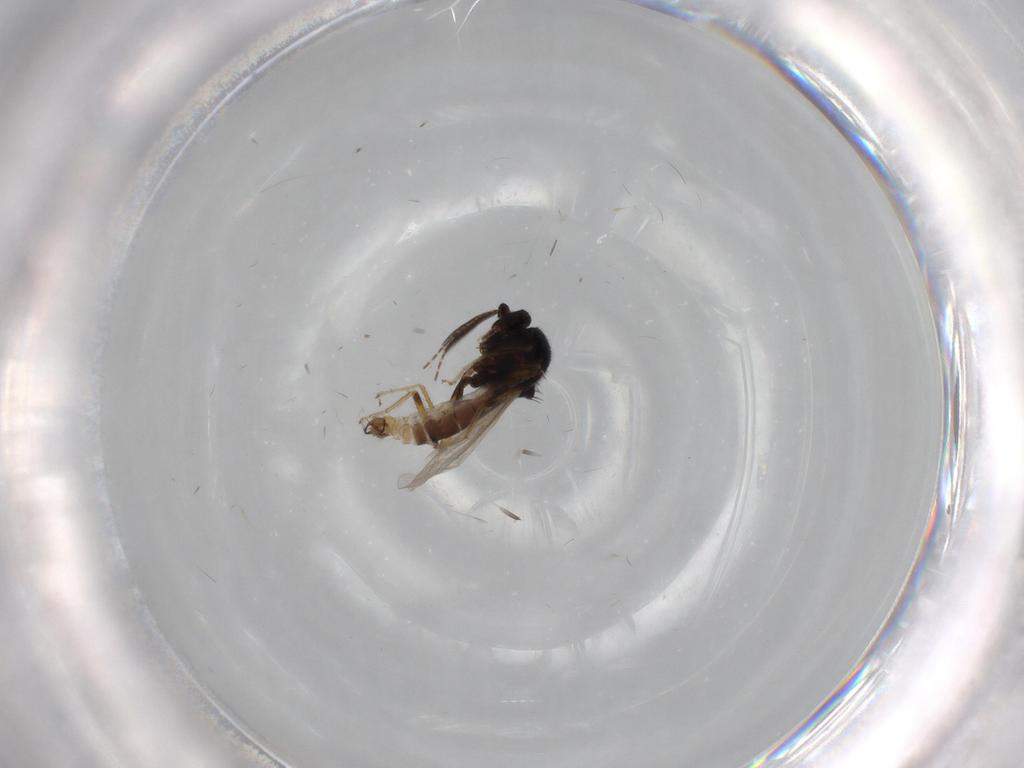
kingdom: Animalia
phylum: Arthropoda
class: Insecta
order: Diptera
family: Ceratopogonidae
